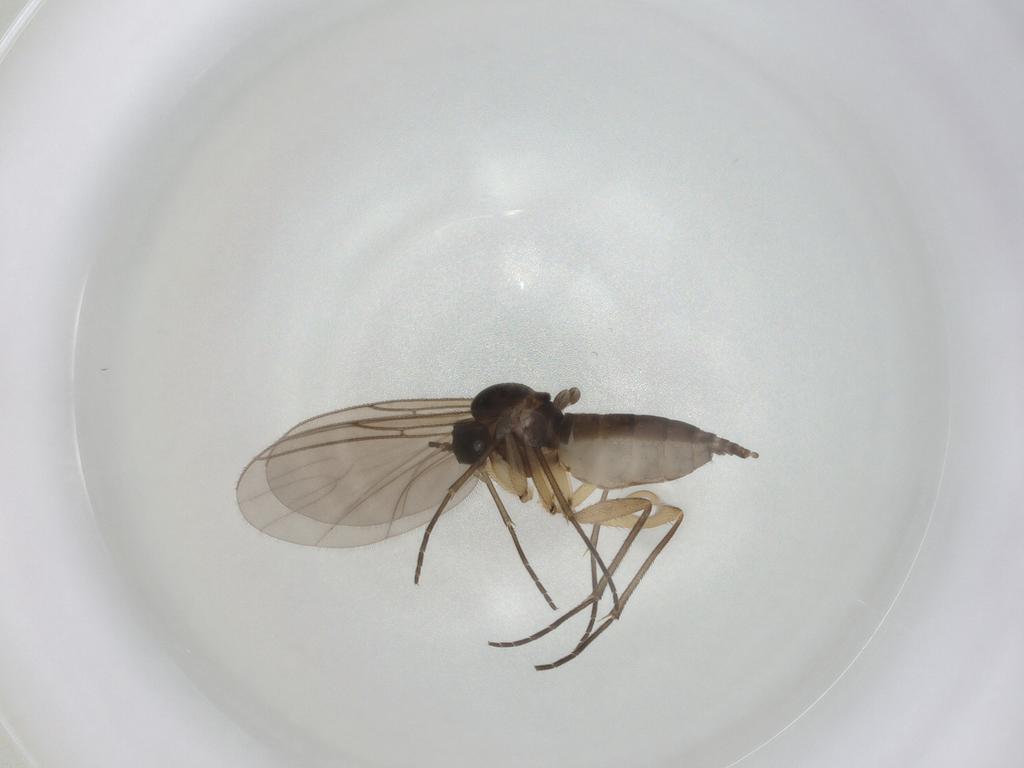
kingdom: Animalia
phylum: Arthropoda
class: Insecta
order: Diptera
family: Sciaridae
